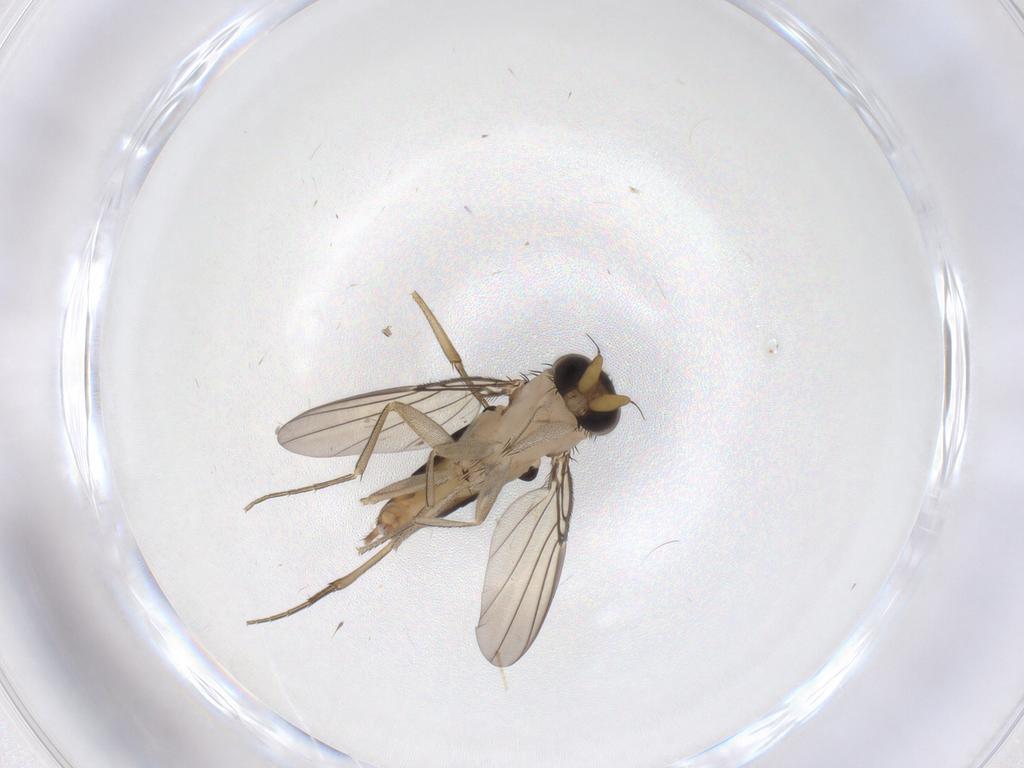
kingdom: Animalia
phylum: Arthropoda
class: Insecta
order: Diptera
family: Phoridae
